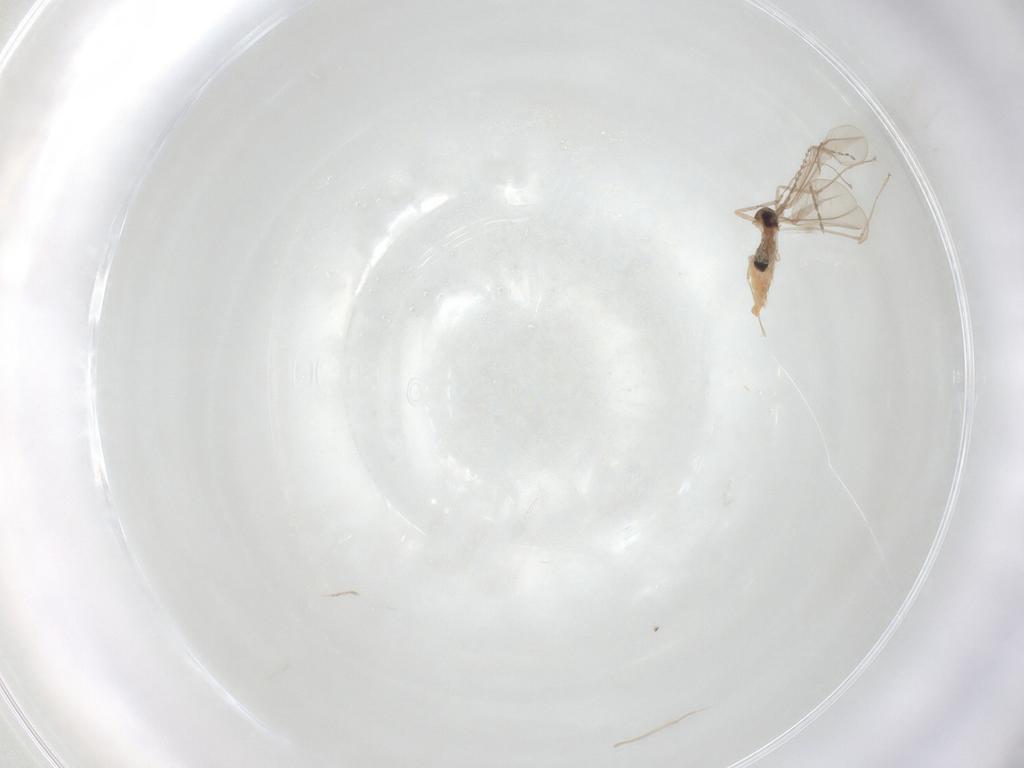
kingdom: Animalia
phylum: Arthropoda
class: Insecta
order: Diptera
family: Cecidomyiidae
